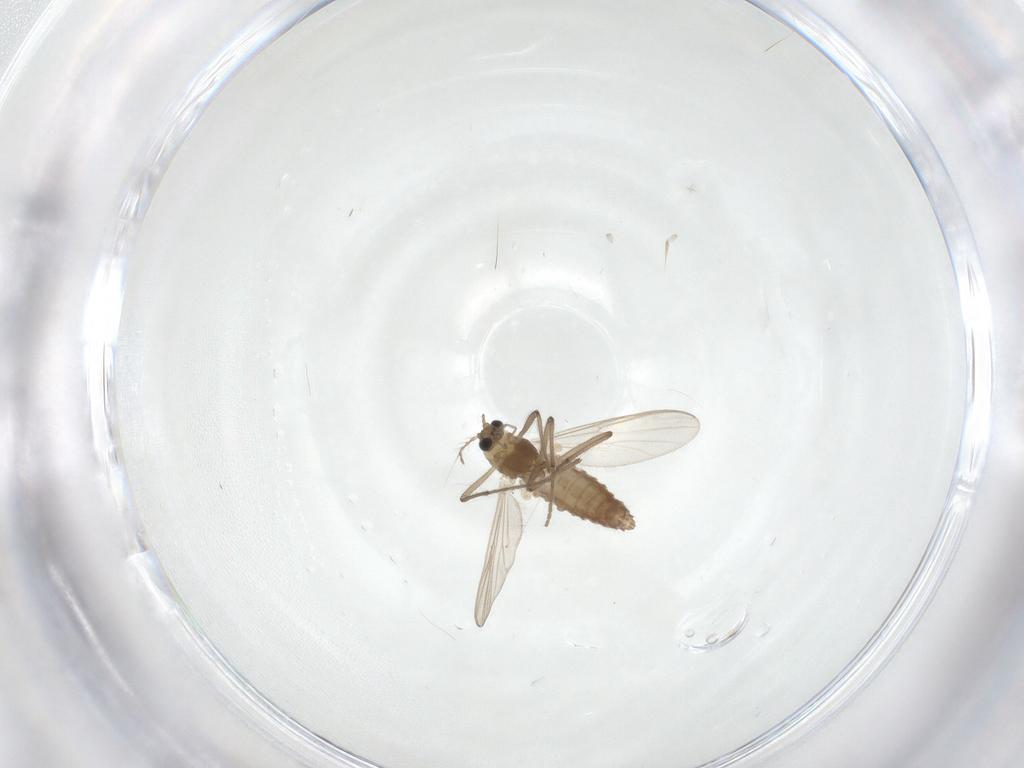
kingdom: Animalia
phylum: Arthropoda
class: Insecta
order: Diptera
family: Chironomidae
